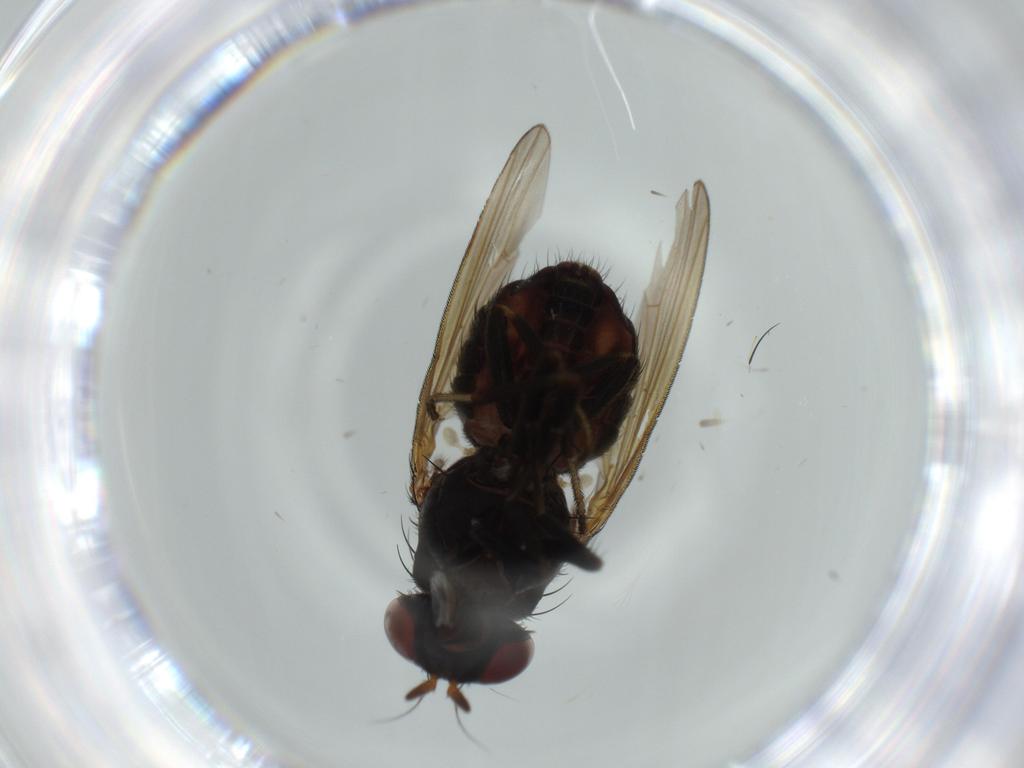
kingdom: Animalia
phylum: Arthropoda
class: Insecta
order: Diptera
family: Lauxaniidae
